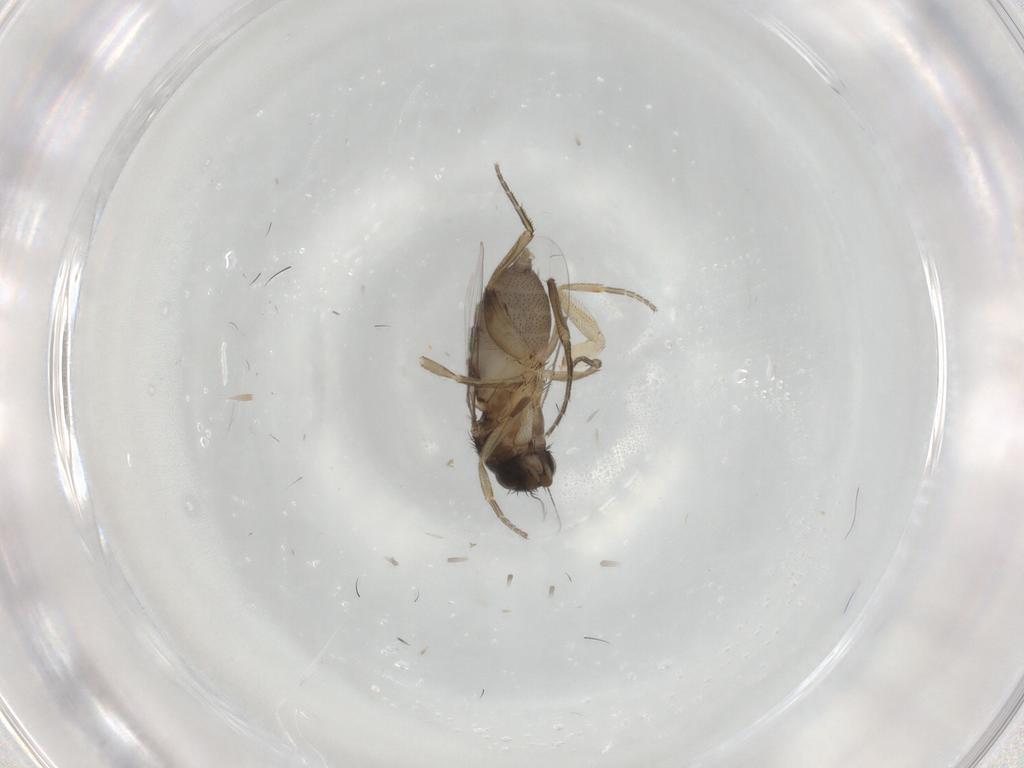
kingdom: Animalia
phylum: Arthropoda
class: Insecta
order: Diptera
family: Phoridae
